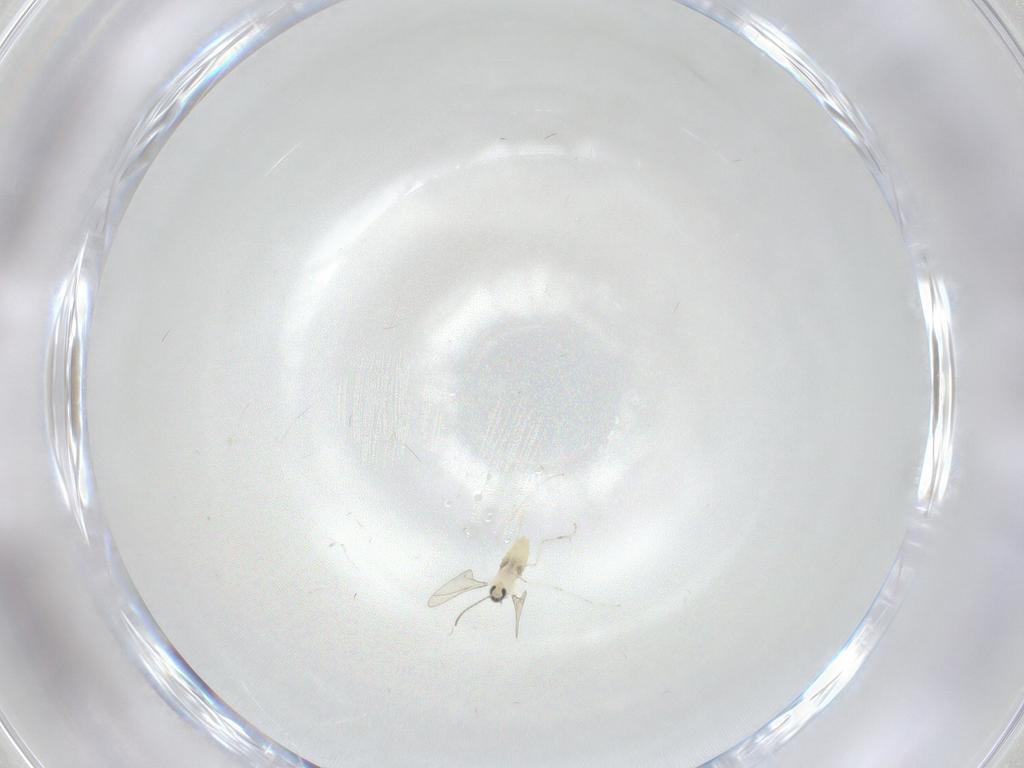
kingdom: Animalia
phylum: Arthropoda
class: Insecta
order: Diptera
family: Cecidomyiidae
